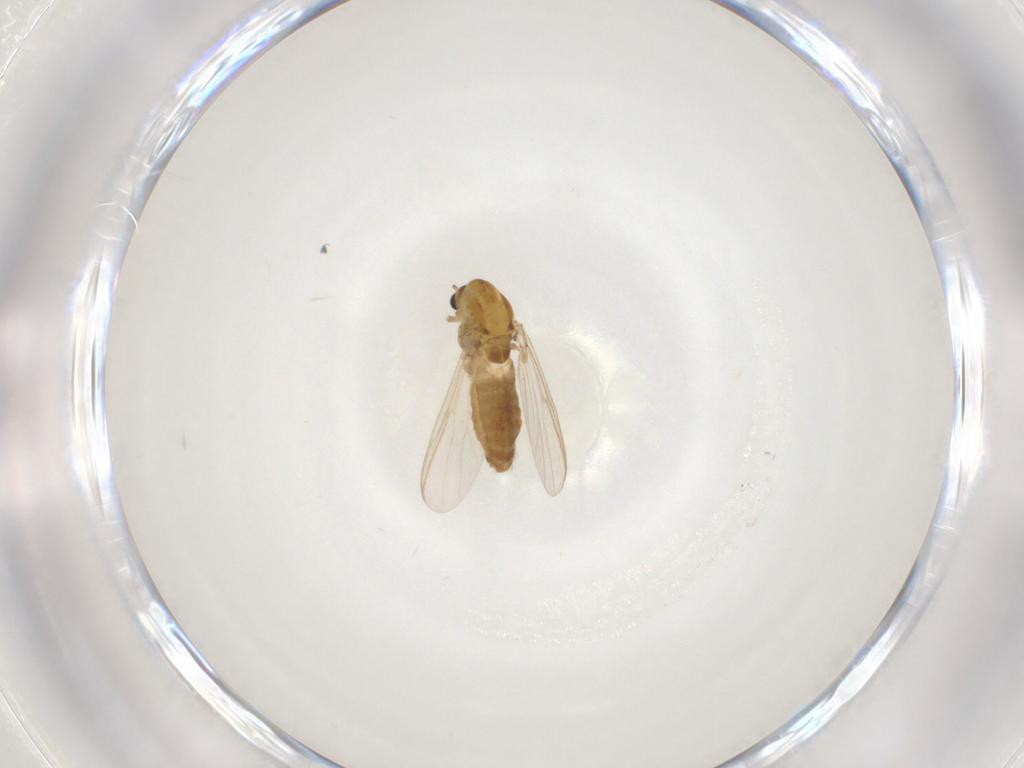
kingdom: Animalia
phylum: Arthropoda
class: Insecta
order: Diptera
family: Chironomidae
